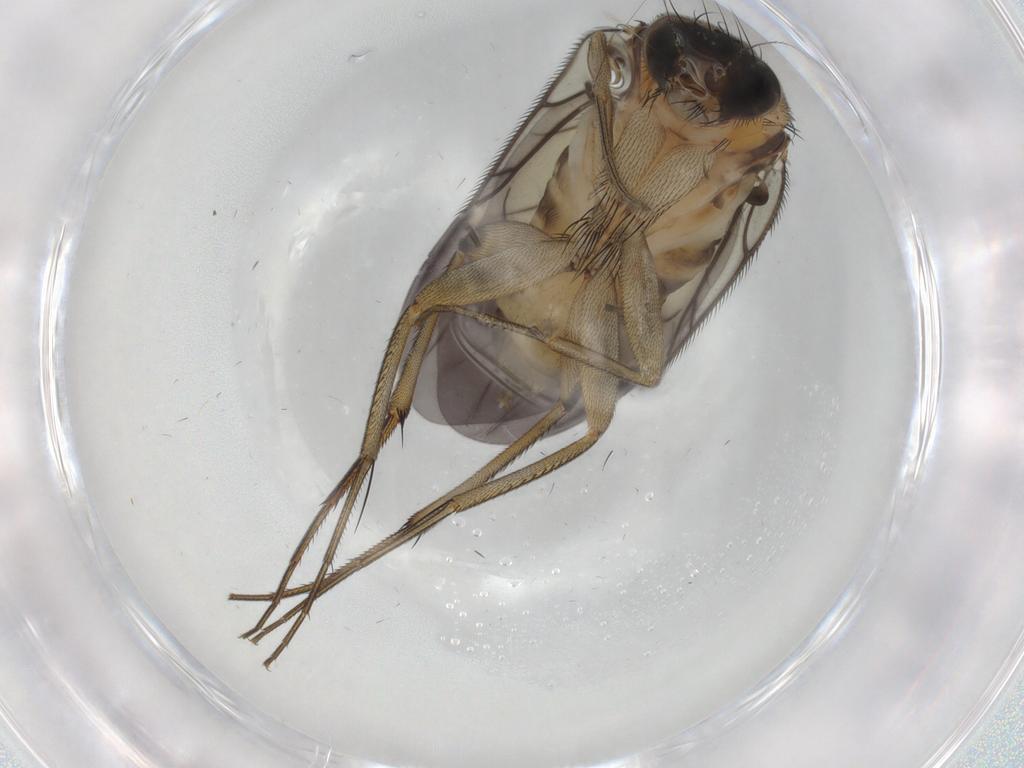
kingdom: Animalia
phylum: Arthropoda
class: Insecta
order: Diptera
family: Phoridae
